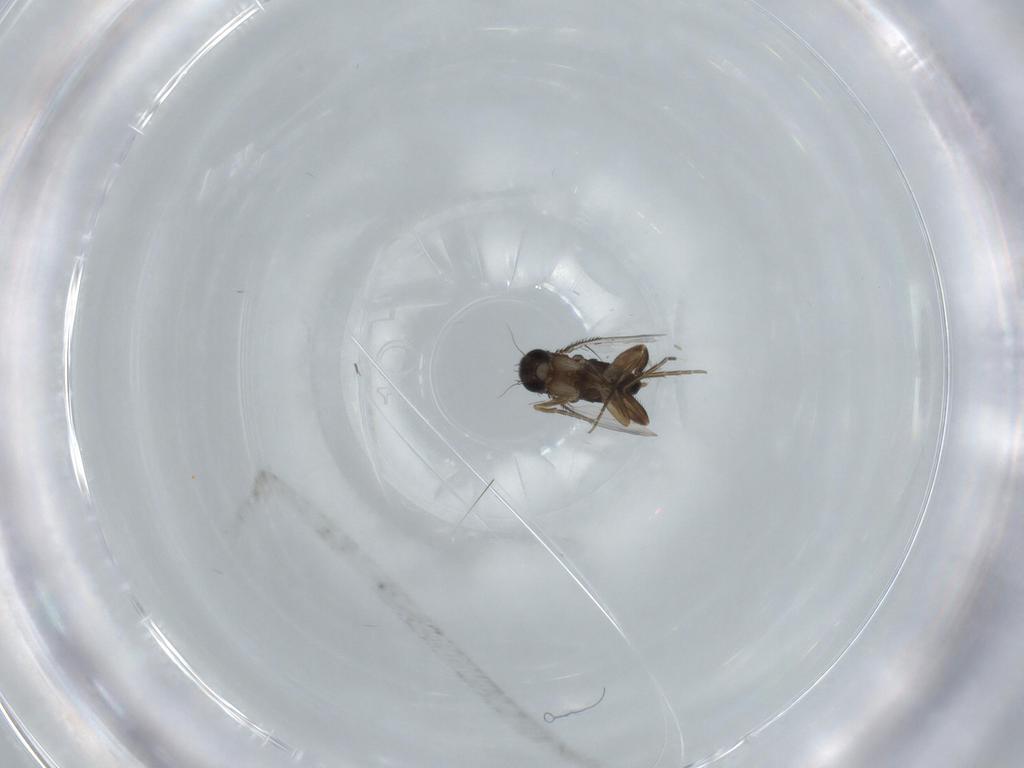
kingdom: Animalia
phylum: Arthropoda
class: Insecta
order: Diptera
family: Phoridae
